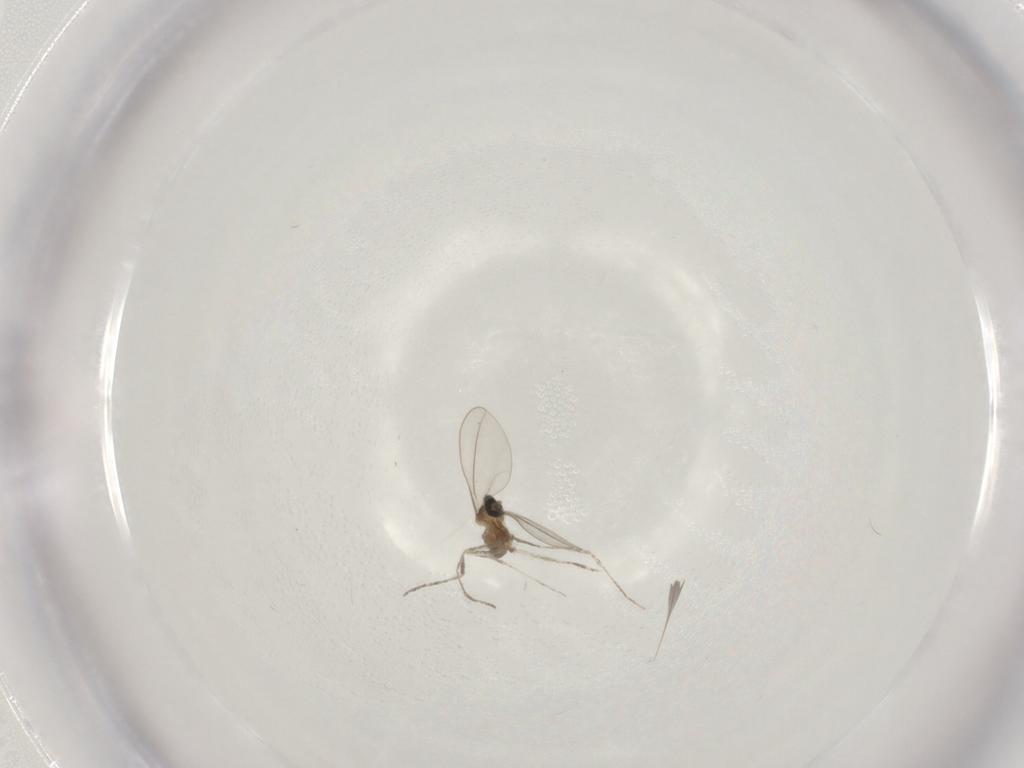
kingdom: Animalia
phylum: Arthropoda
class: Insecta
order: Diptera
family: Cecidomyiidae
